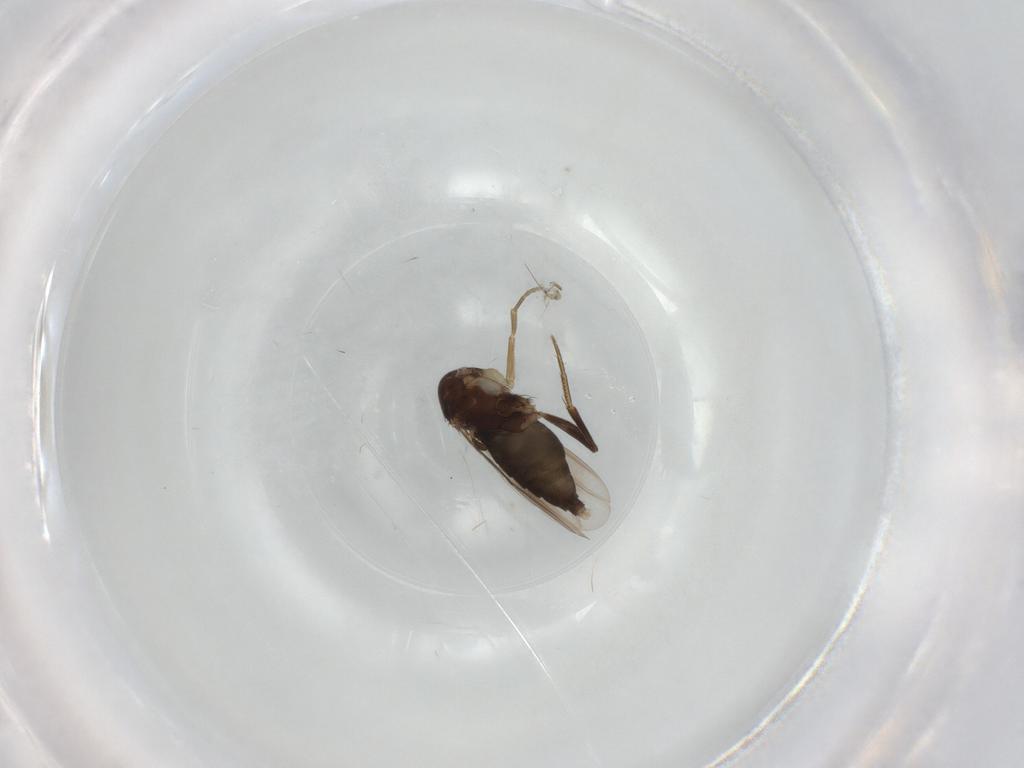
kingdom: Animalia
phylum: Arthropoda
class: Insecta
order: Diptera
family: Phoridae
